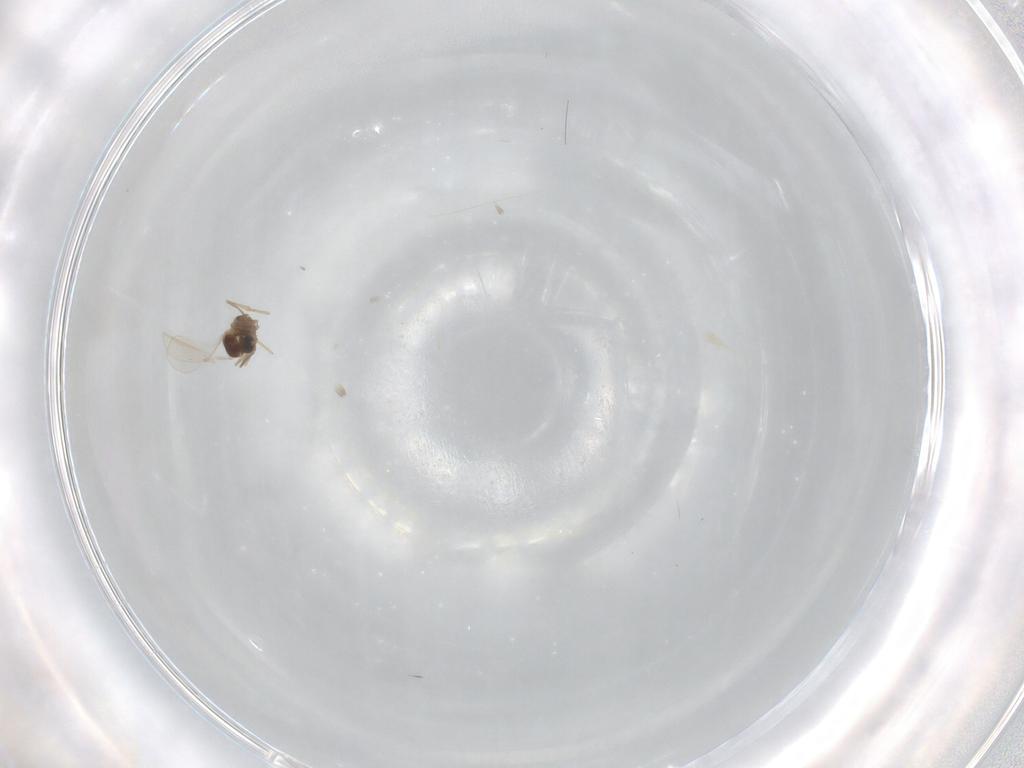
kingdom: Animalia
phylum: Arthropoda
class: Insecta
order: Diptera
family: Cecidomyiidae
